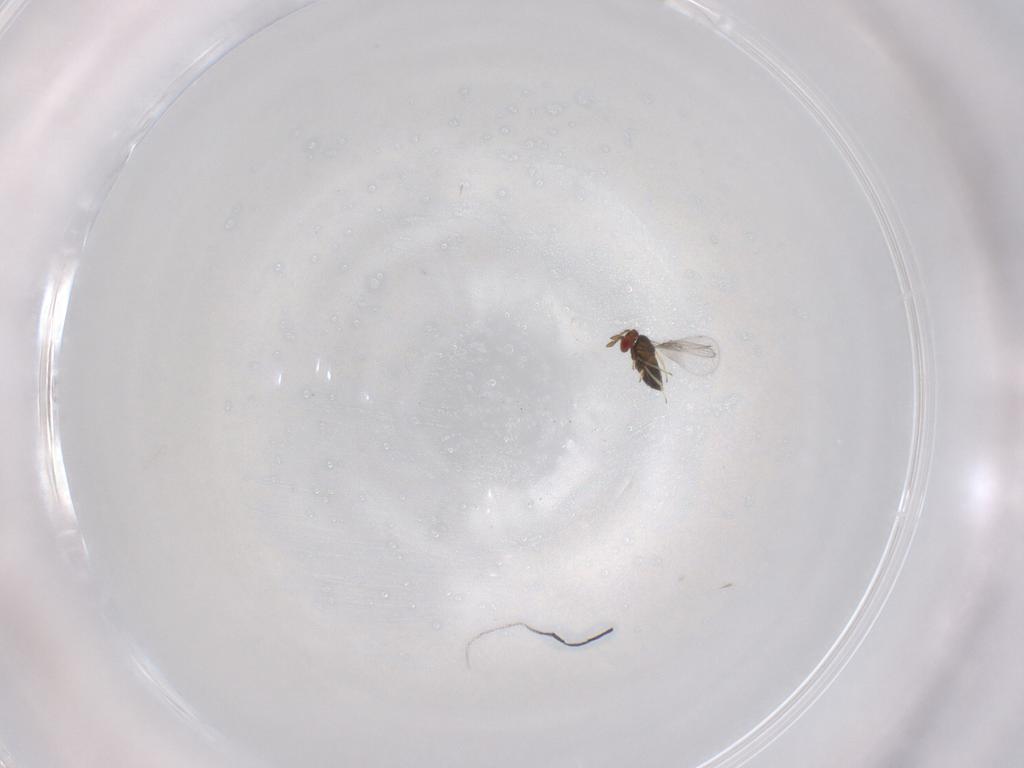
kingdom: Animalia
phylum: Arthropoda
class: Insecta
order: Hymenoptera
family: Trichogrammatidae
